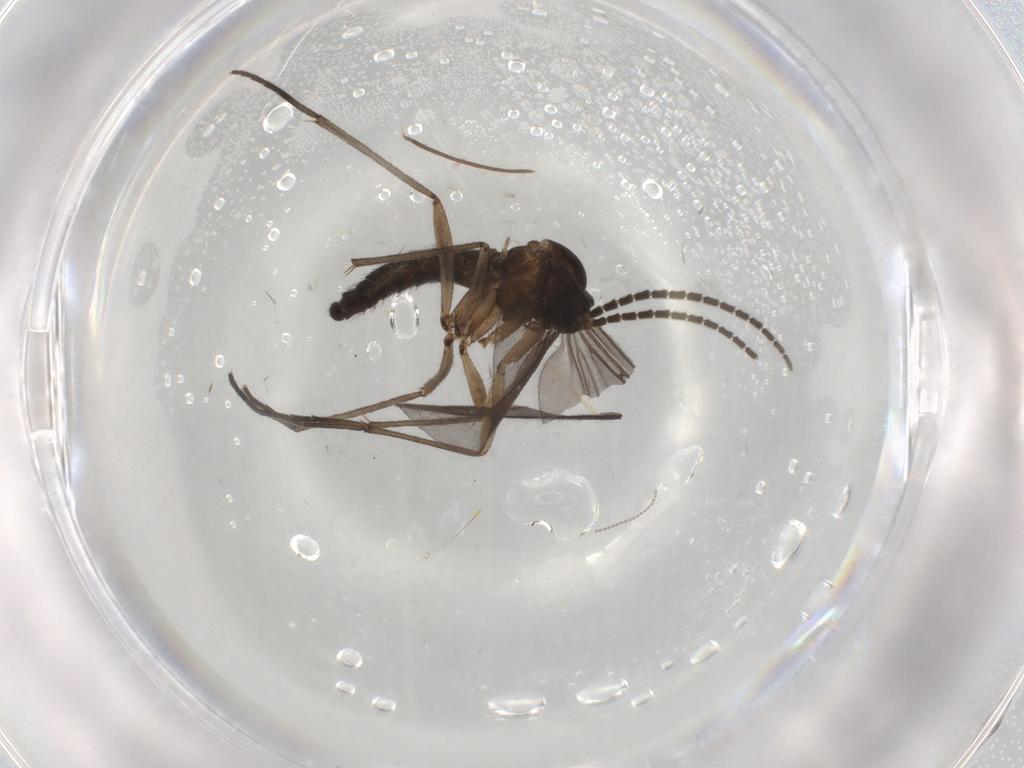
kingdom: Animalia
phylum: Arthropoda
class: Insecta
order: Diptera
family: Sciaridae
